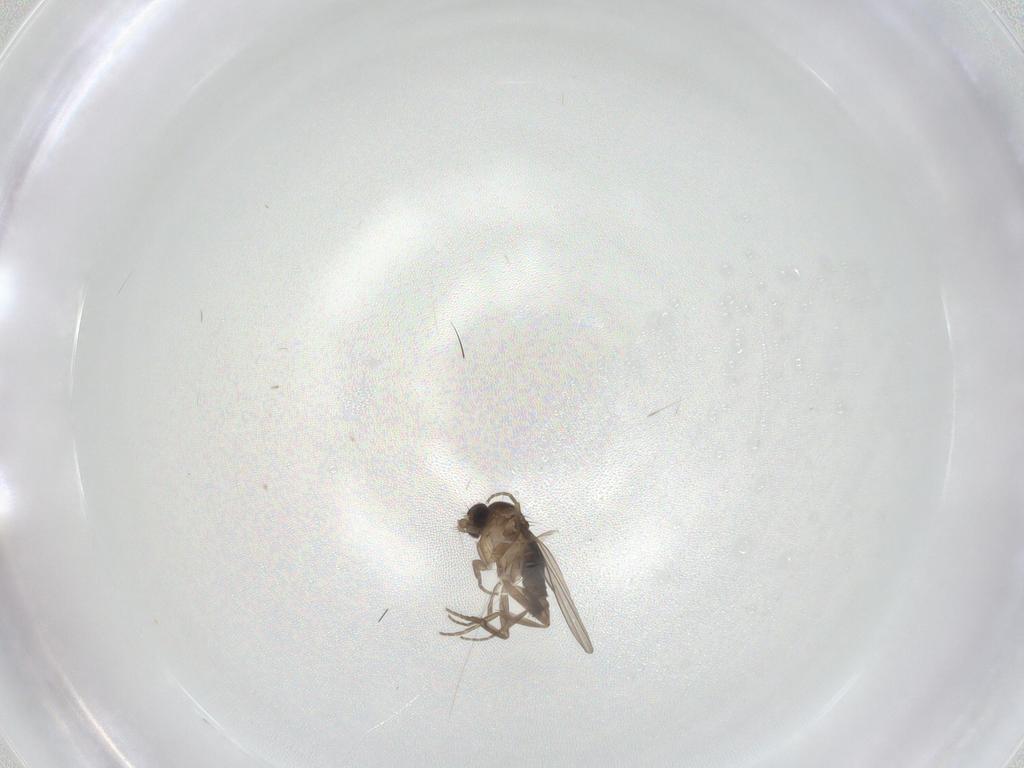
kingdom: Animalia
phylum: Arthropoda
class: Insecta
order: Diptera
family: Phoridae
